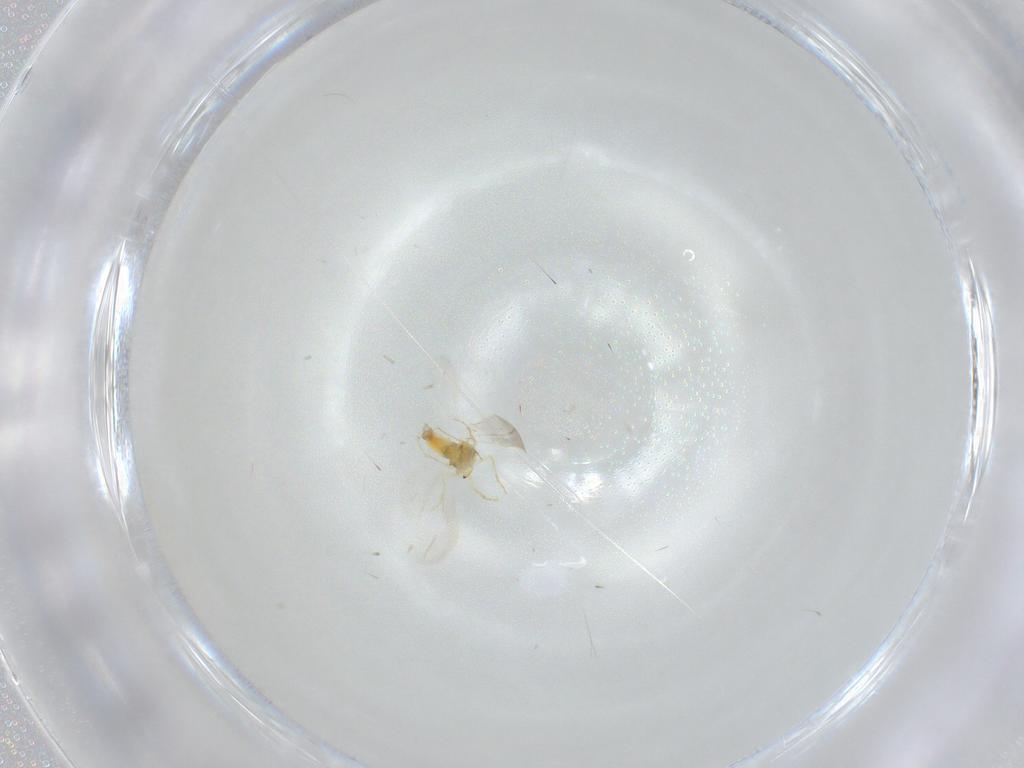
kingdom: Animalia
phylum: Arthropoda
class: Insecta
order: Hemiptera
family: Aleyrodidae
